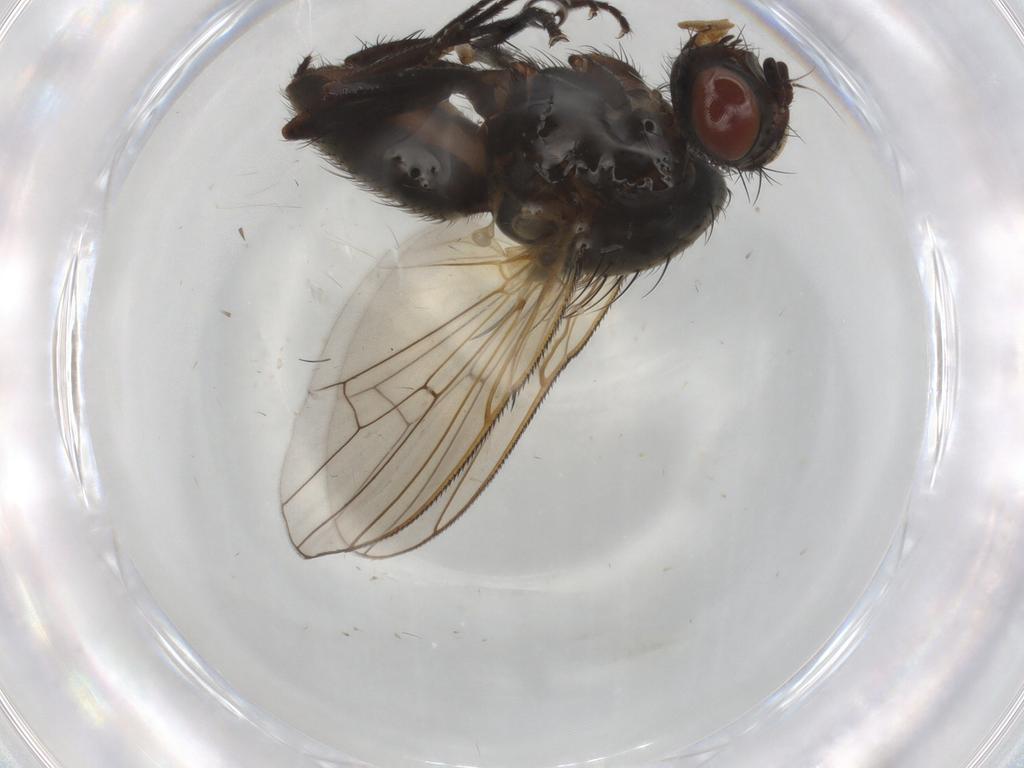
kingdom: Animalia
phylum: Arthropoda
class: Insecta
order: Diptera
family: Anthomyiidae
